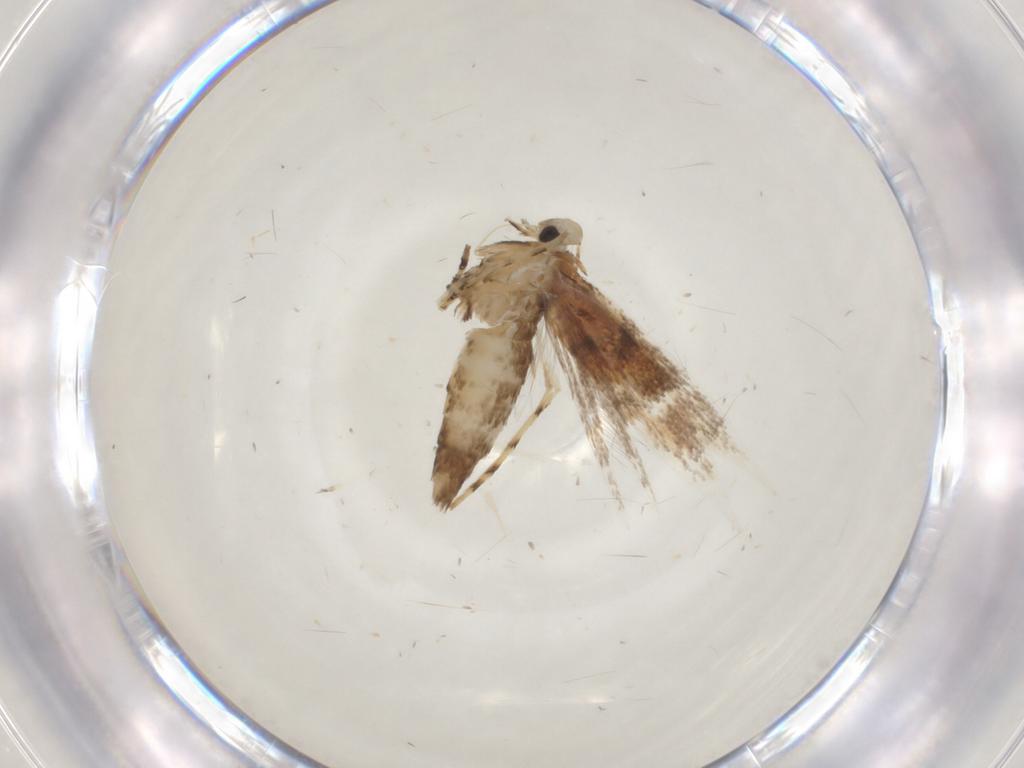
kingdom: Animalia
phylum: Arthropoda
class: Insecta
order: Lepidoptera
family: Gracillariidae
